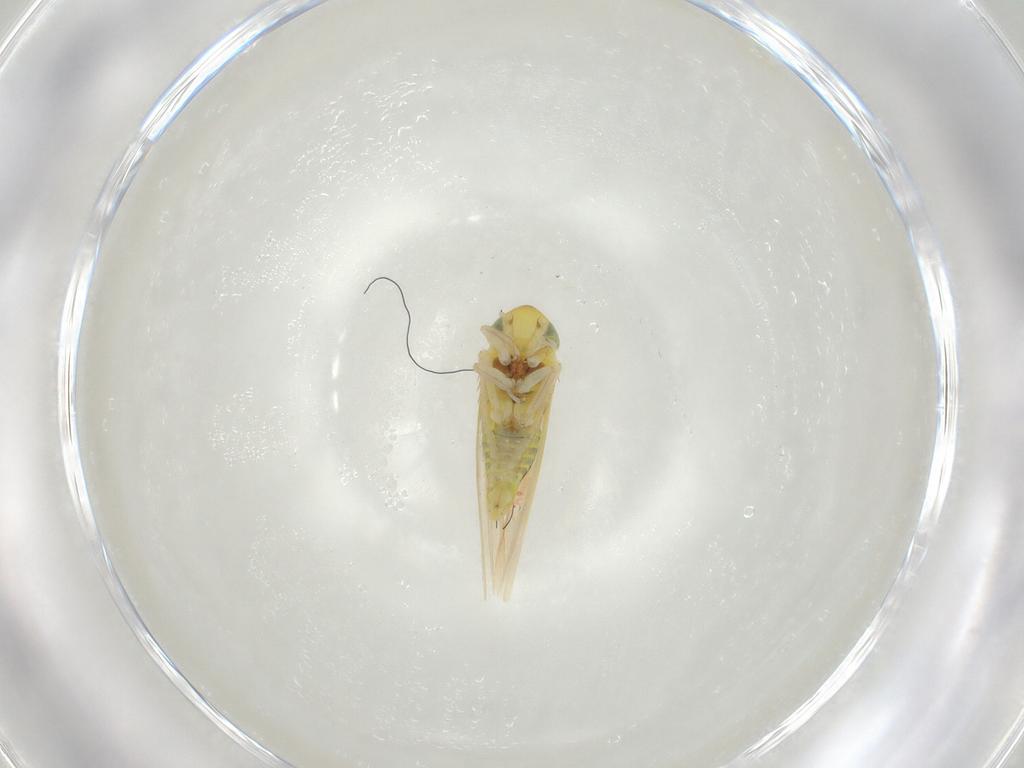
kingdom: Animalia
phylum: Arthropoda
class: Insecta
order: Hemiptera
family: Cicadellidae
